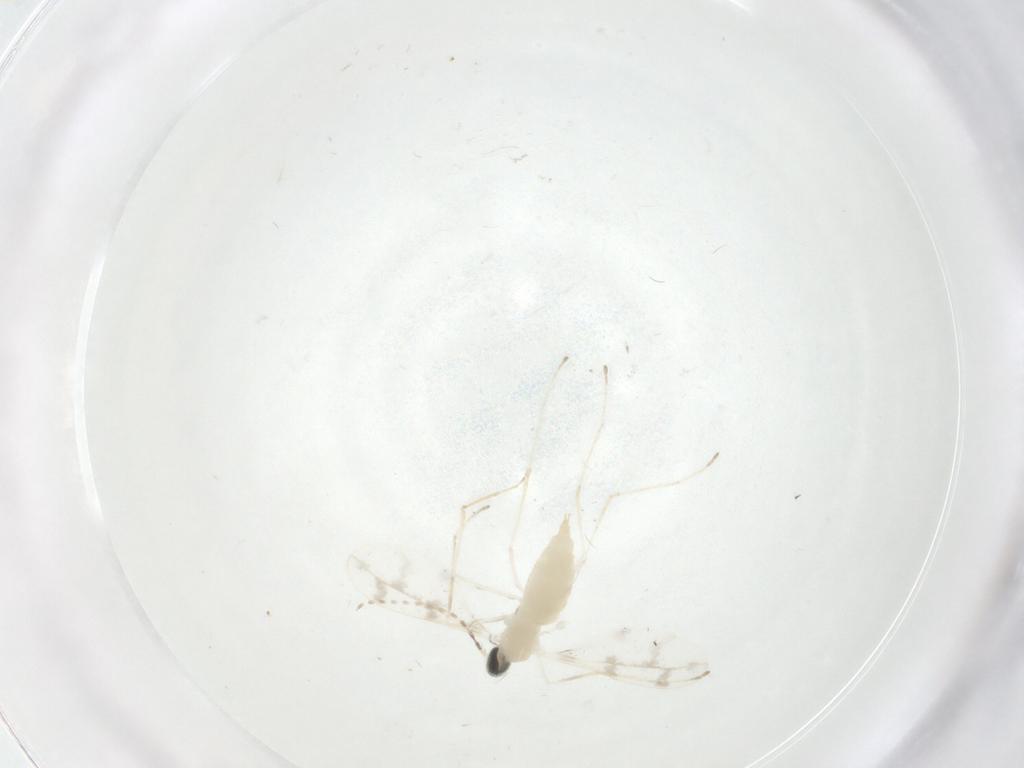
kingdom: Animalia
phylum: Arthropoda
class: Insecta
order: Diptera
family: Cecidomyiidae
